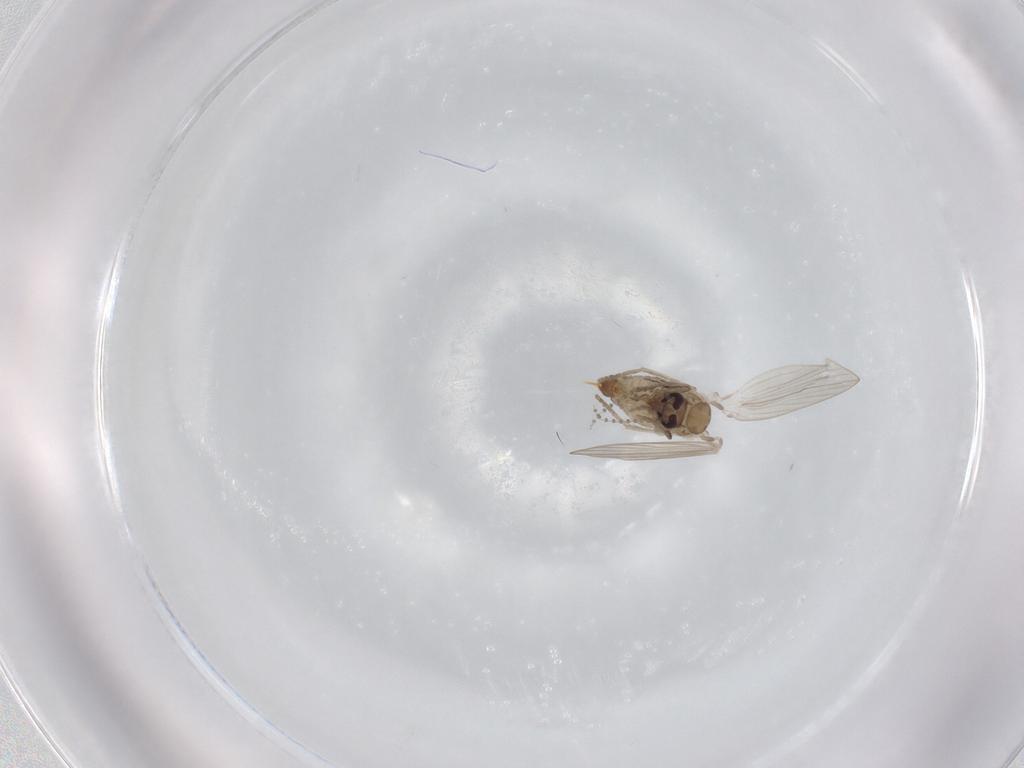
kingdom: Animalia
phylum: Arthropoda
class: Insecta
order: Diptera
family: Psychodidae
